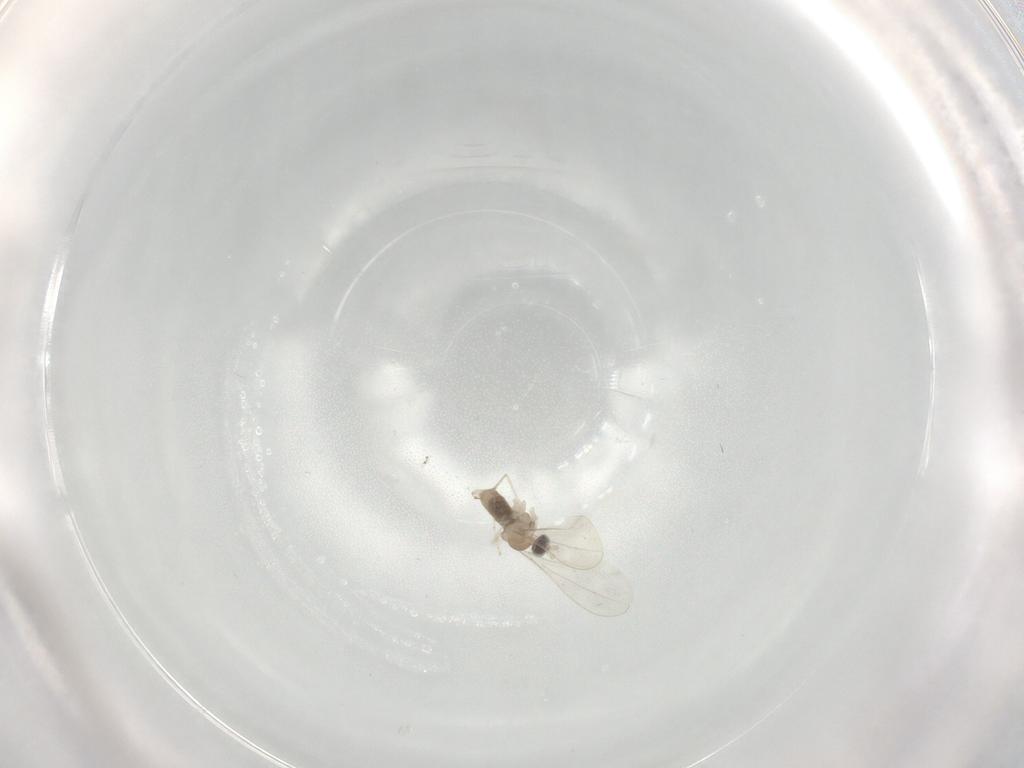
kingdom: Animalia
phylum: Arthropoda
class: Insecta
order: Diptera
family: Cecidomyiidae
